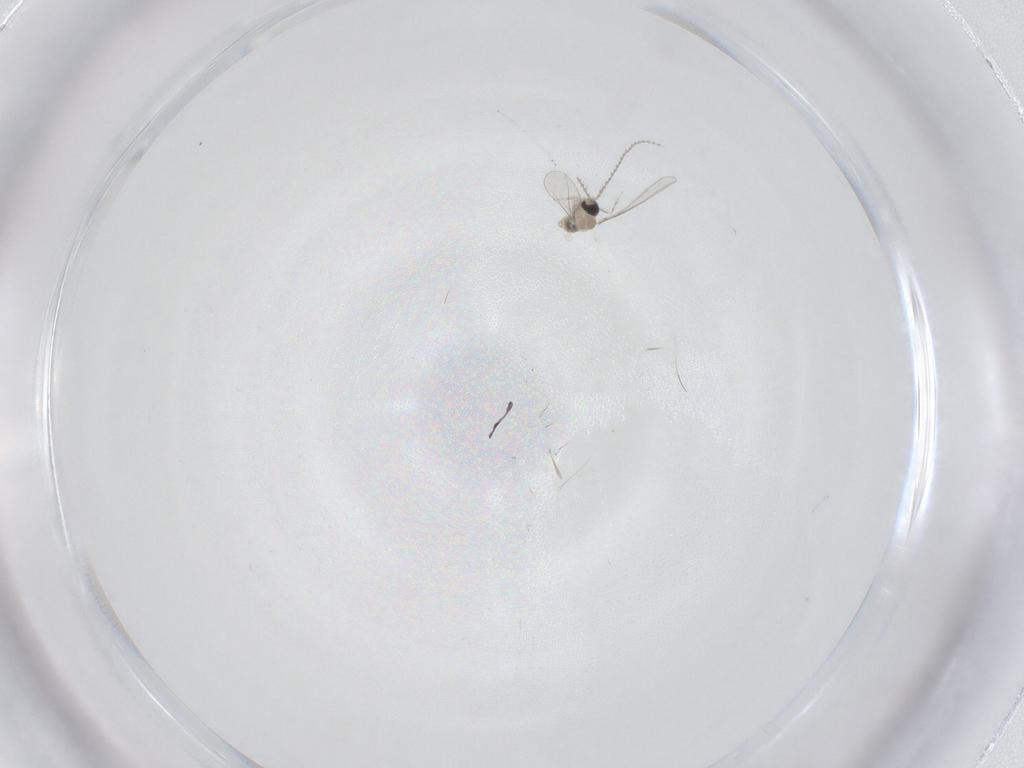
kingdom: Animalia
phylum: Arthropoda
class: Insecta
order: Diptera
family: Cecidomyiidae
